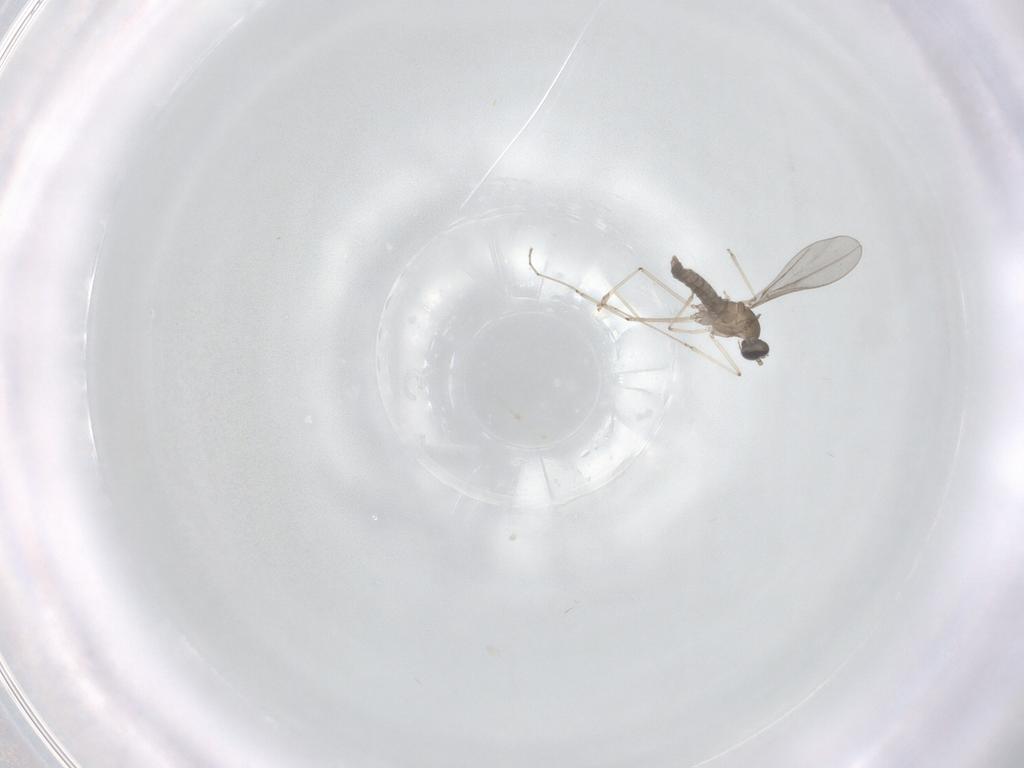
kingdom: Animalia
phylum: Arthropoda
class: Insecta
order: Diptera
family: Cecidomyiidae
